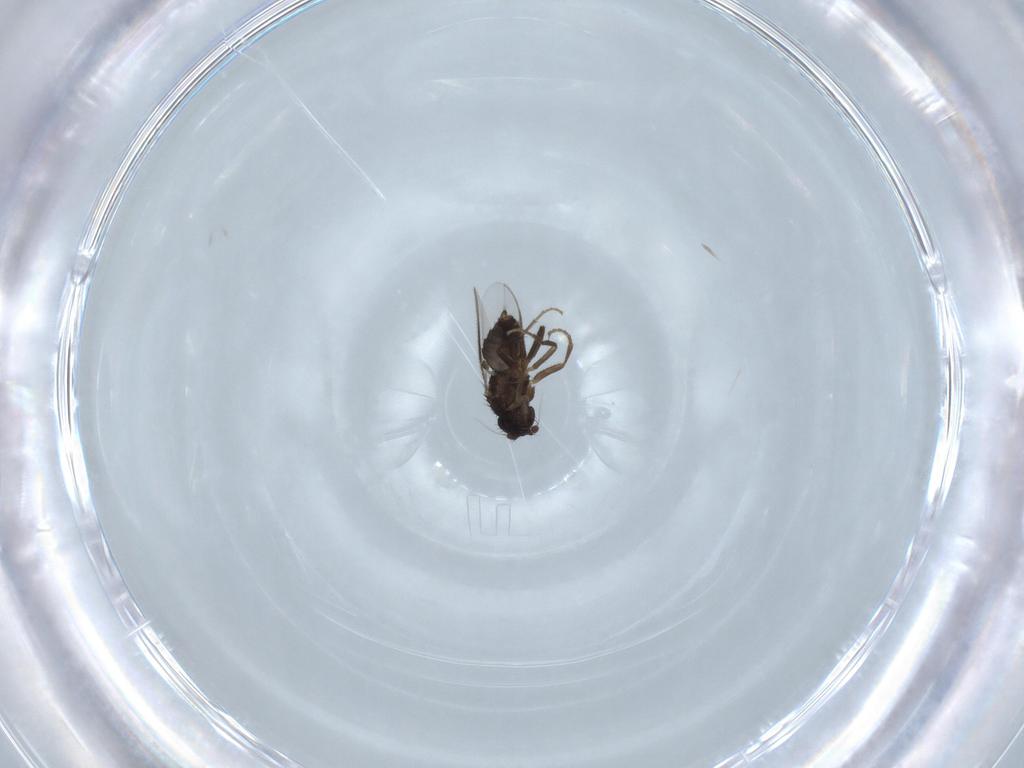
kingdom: Animalia
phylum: Arthropoda
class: Insecta
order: Diptera
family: Cecidomyiidae
